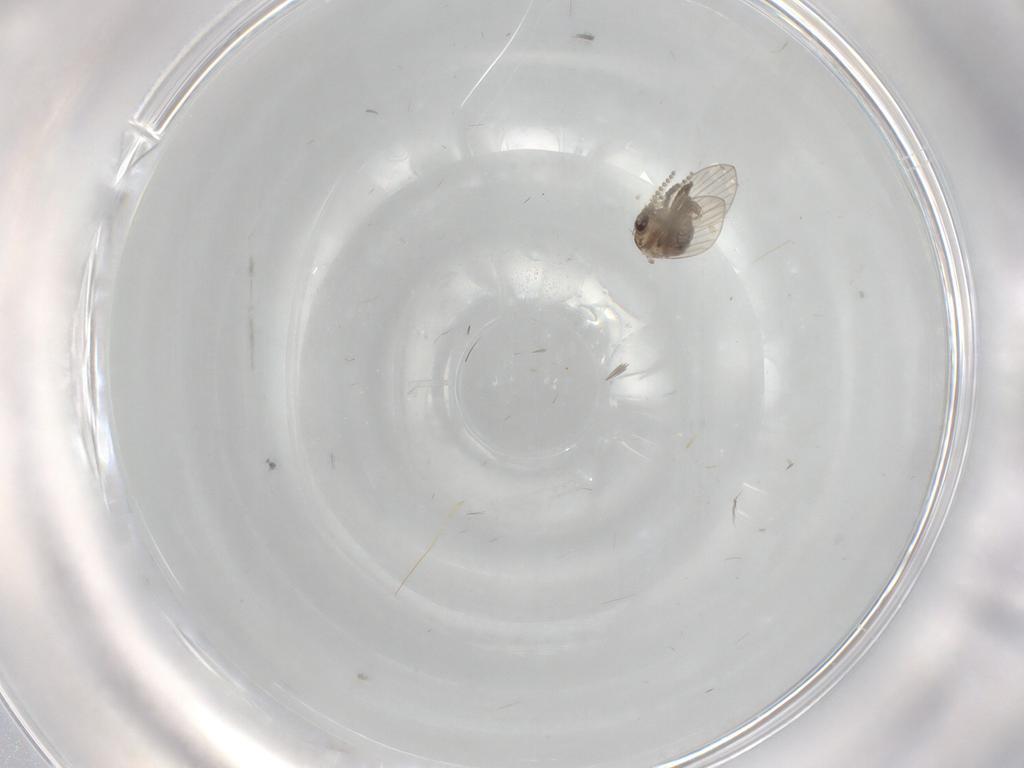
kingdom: Animalia
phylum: Arthropoda
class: Insecta
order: Diptera
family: Psychodidae
